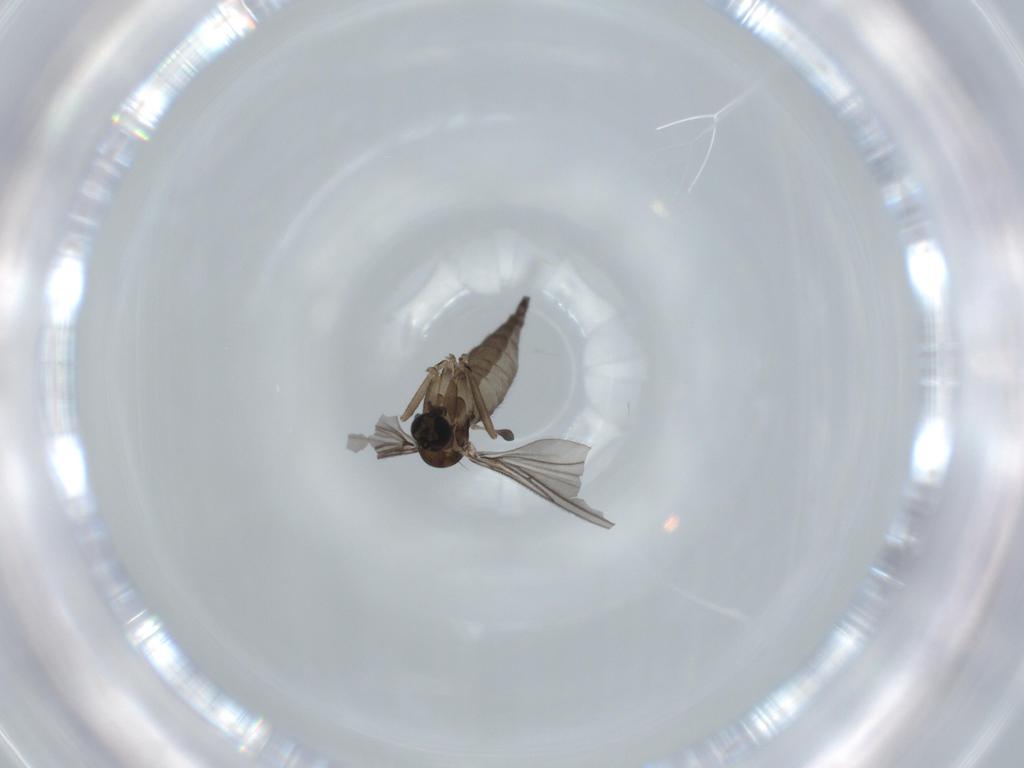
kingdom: Animalia
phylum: Arthropoda
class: Insecta
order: Diptera
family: Sciaridae
